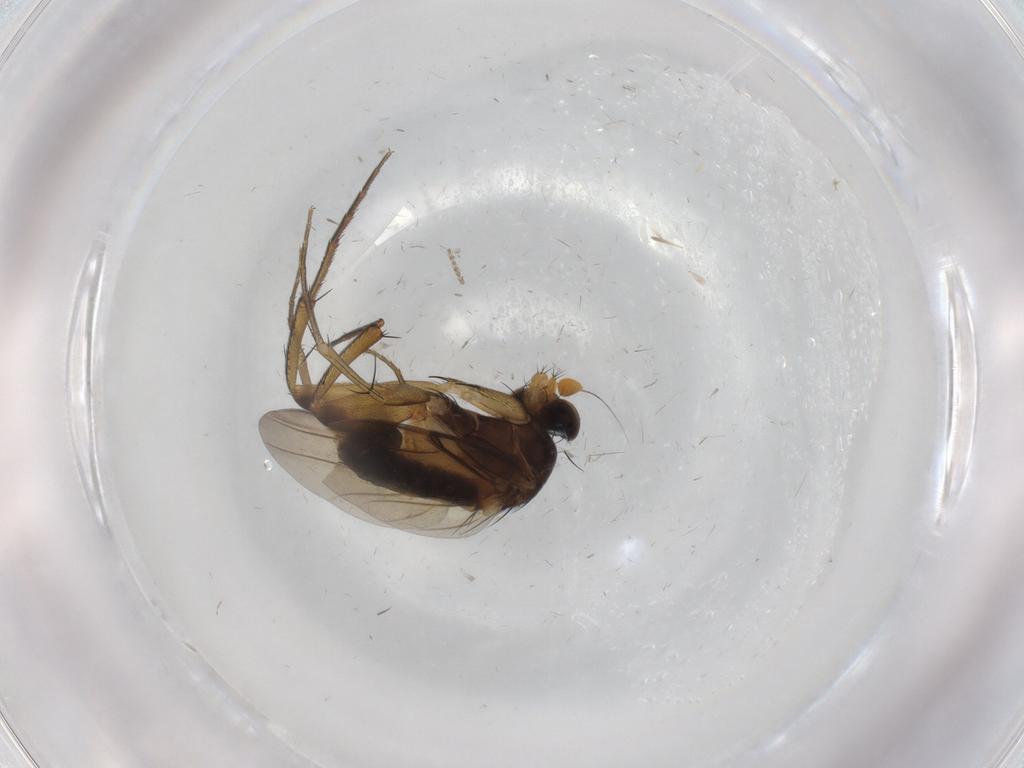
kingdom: Animalia
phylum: Arthropoda
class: Insecta
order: Diptera
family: Phoridae
